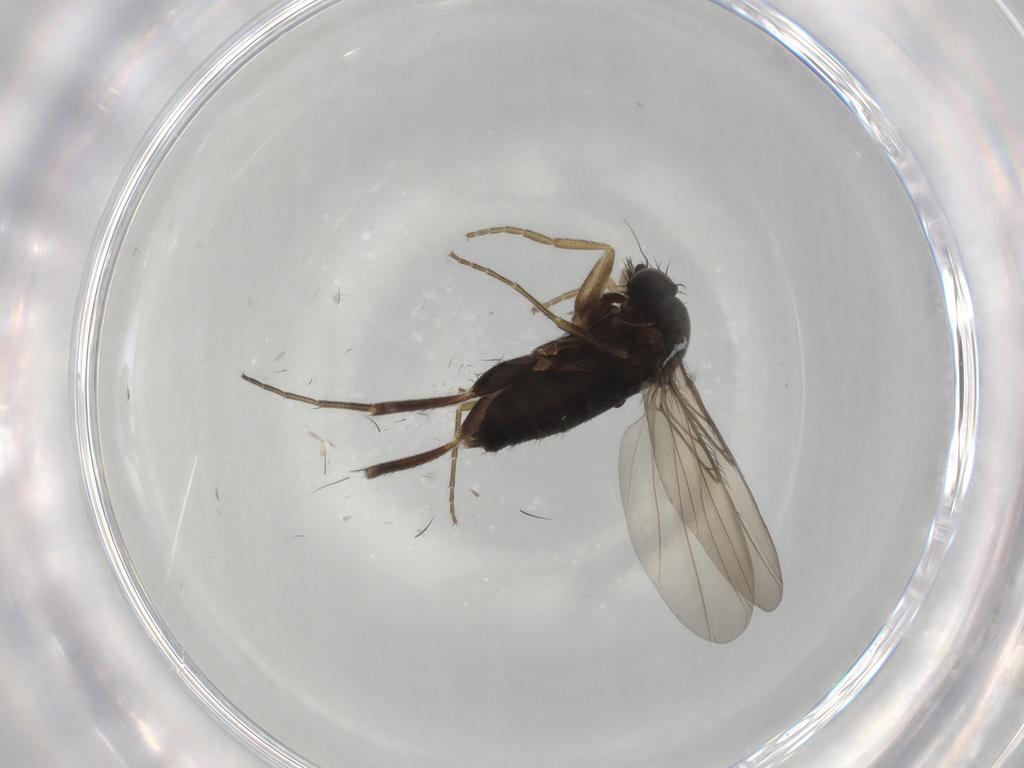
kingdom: Animalia
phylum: Arthropoda
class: Insecta
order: Diptera
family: Phoridae
